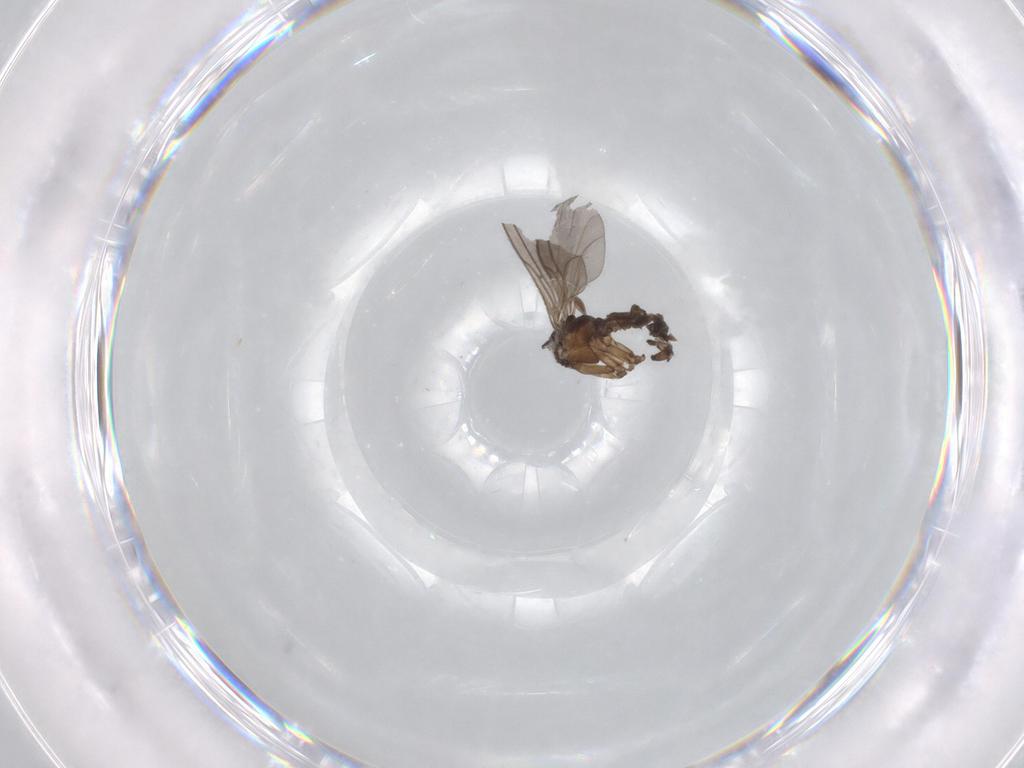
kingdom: Animalia
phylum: Arthropoda
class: Insecta
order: Diptera
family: Sciaridae
